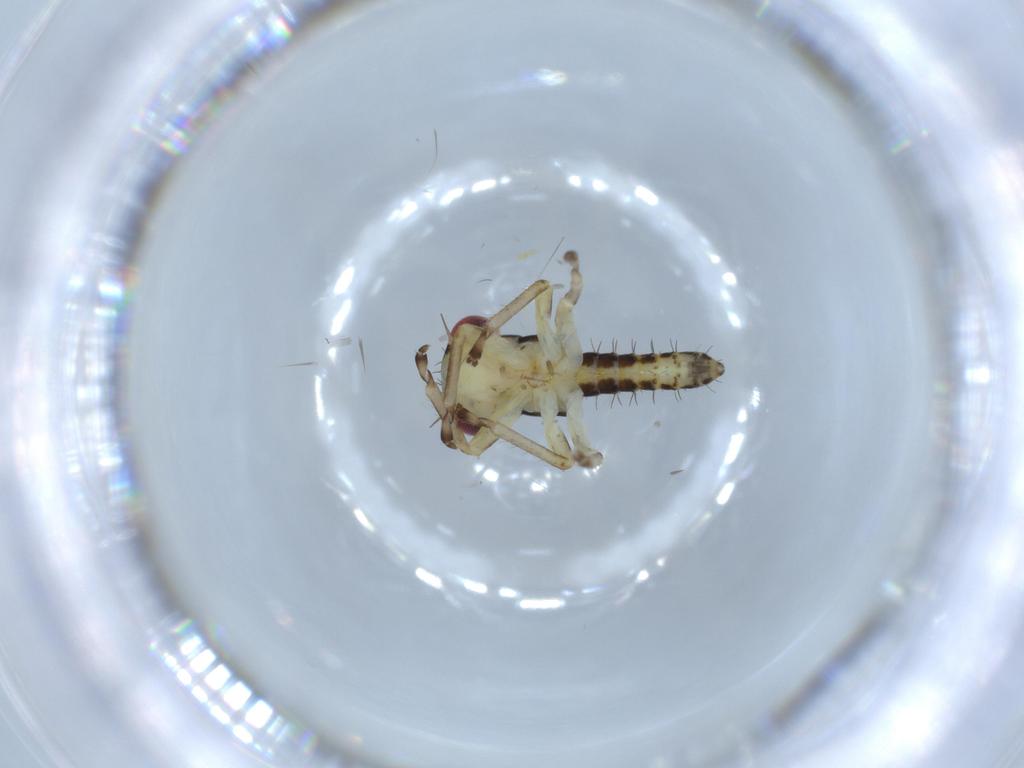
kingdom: Animalia
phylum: Arthropoda
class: Insecta
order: Hemiptera
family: Cicadellidae
